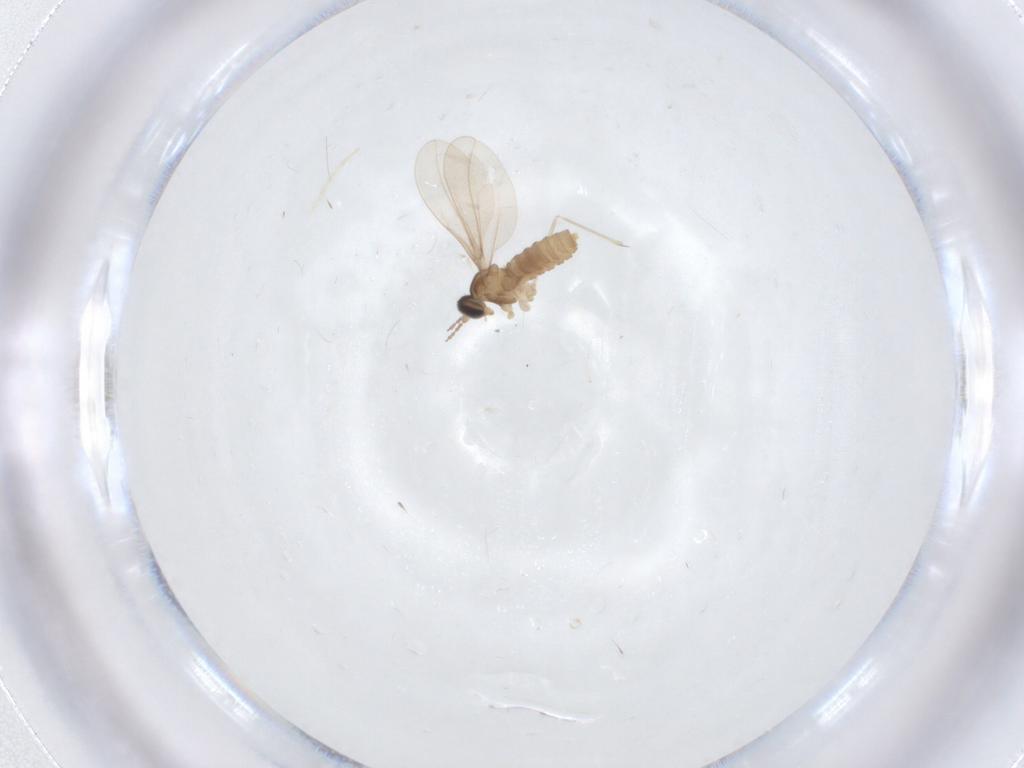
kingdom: Animalia
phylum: Arthropoda
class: Insecta
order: Diptera
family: Cecidomyiidae
